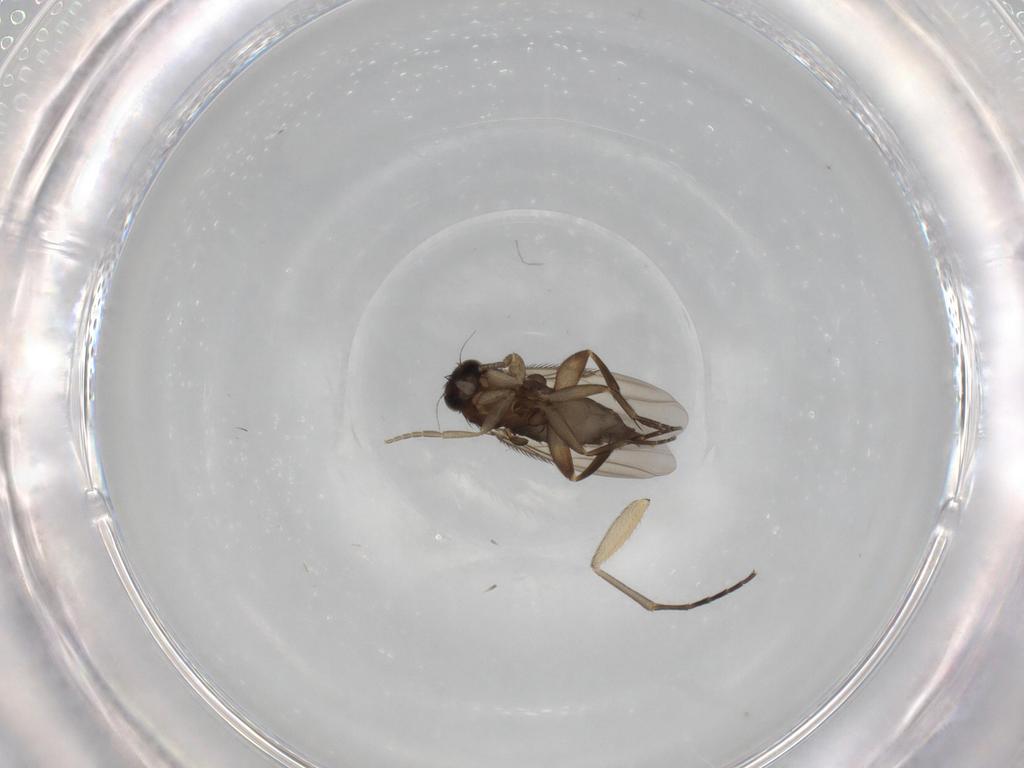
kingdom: Animalia
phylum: Arthropoda
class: Insecta
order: Diptera
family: Phoridae
